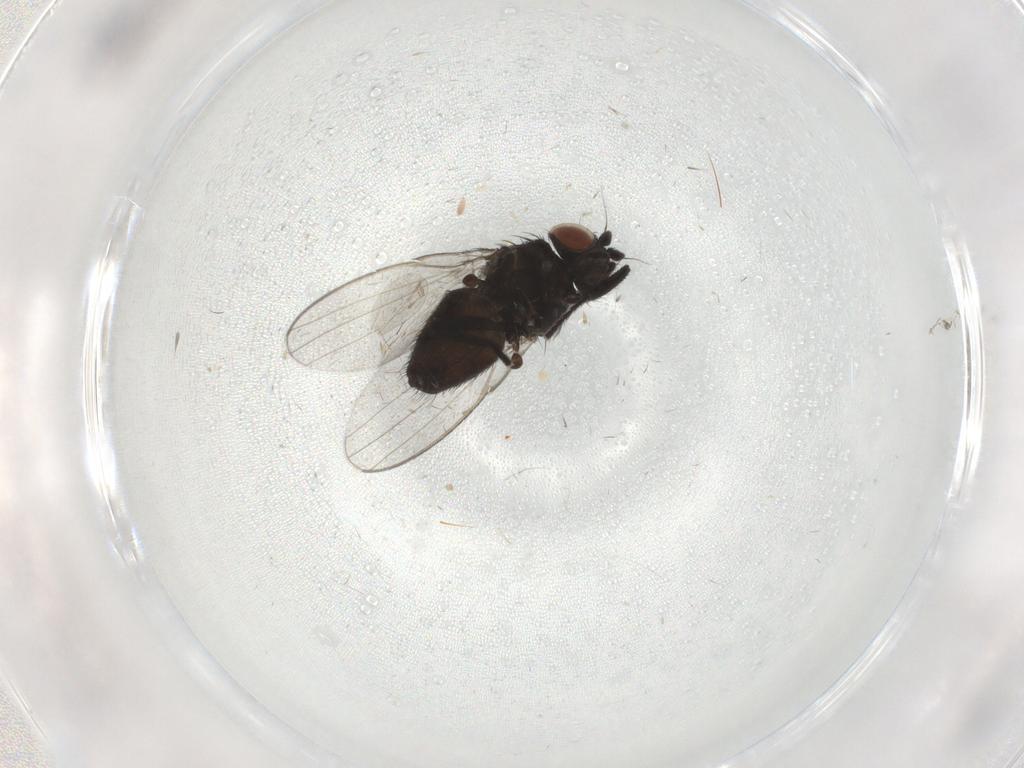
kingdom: Animalia
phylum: Arthropoda
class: Insecta
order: Diptera
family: Milichiidae
